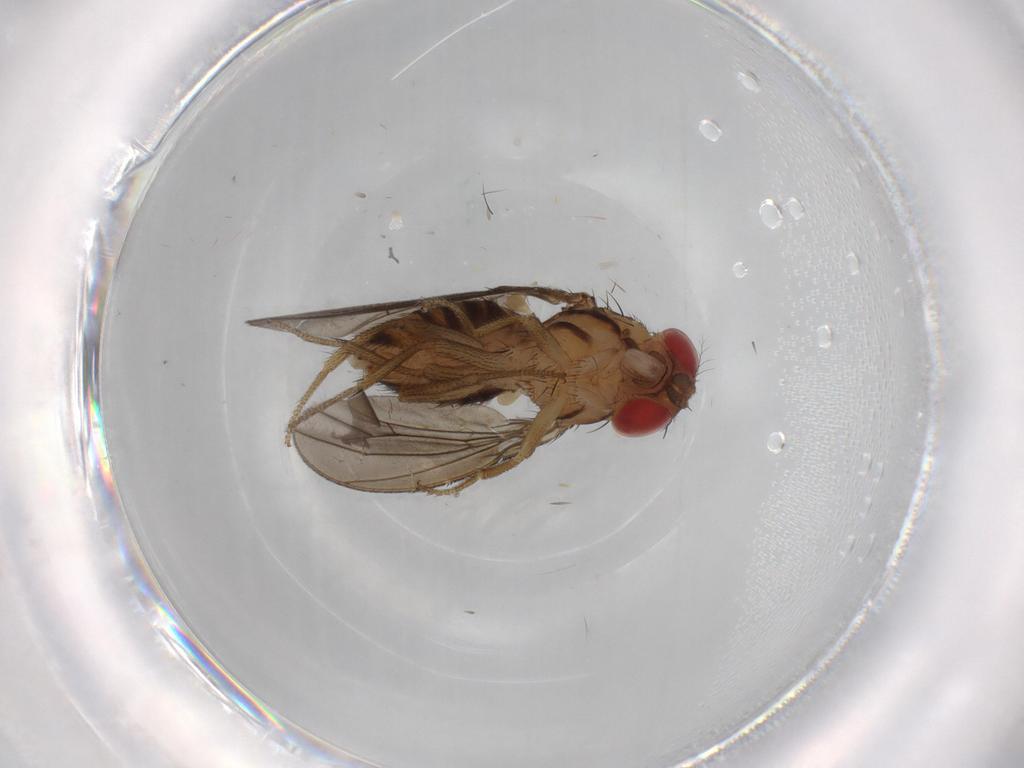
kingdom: Animalia
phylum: Arthropoda
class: Insecta
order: Diptera
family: Drosophilidae
